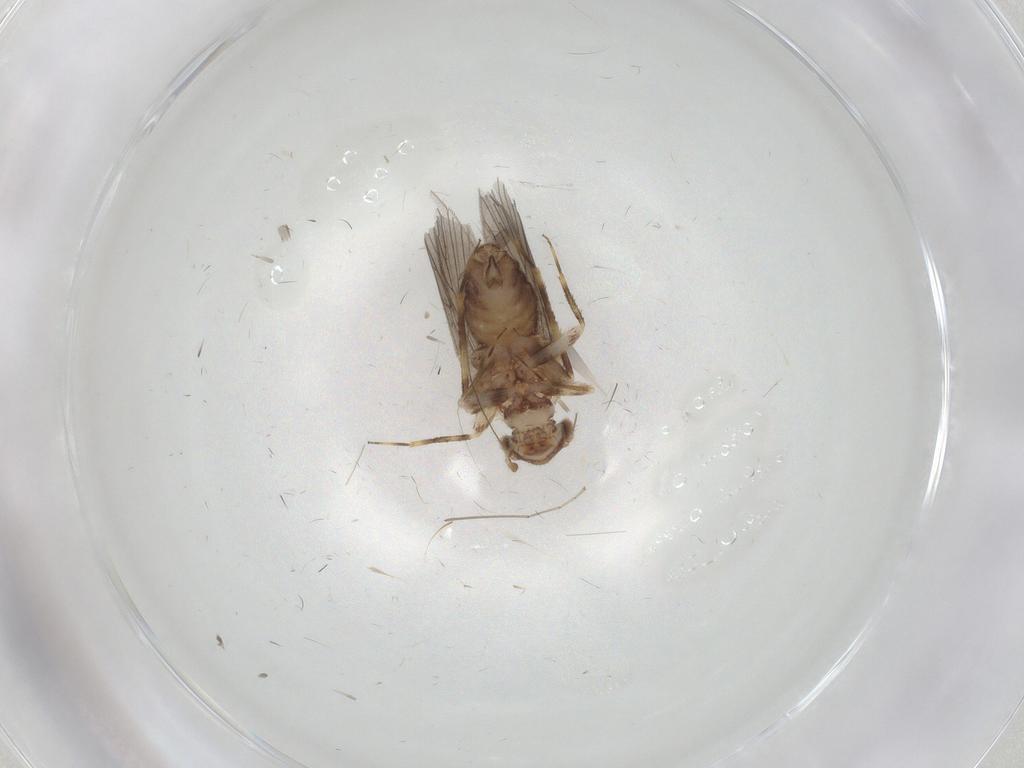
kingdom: Animalia
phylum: Arthropoda
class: Insecta
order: Psocodea
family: Lepidopsocidae
